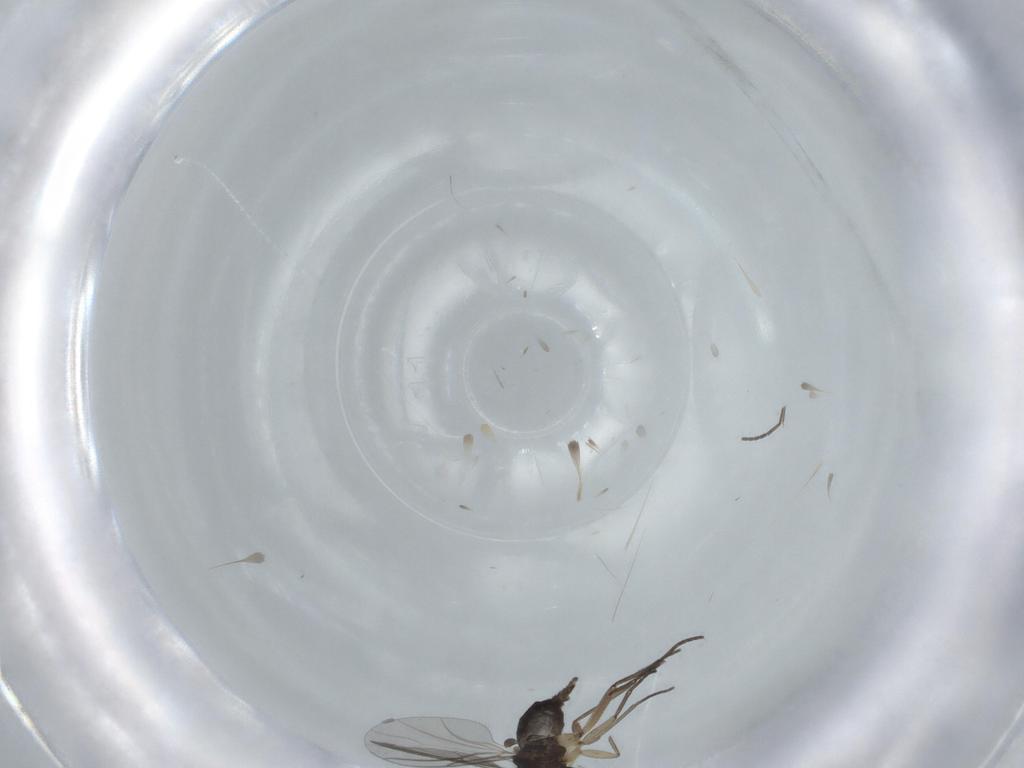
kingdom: Animalia
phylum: Arthropoda
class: Insecta
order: Diptera
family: Sciaridae
